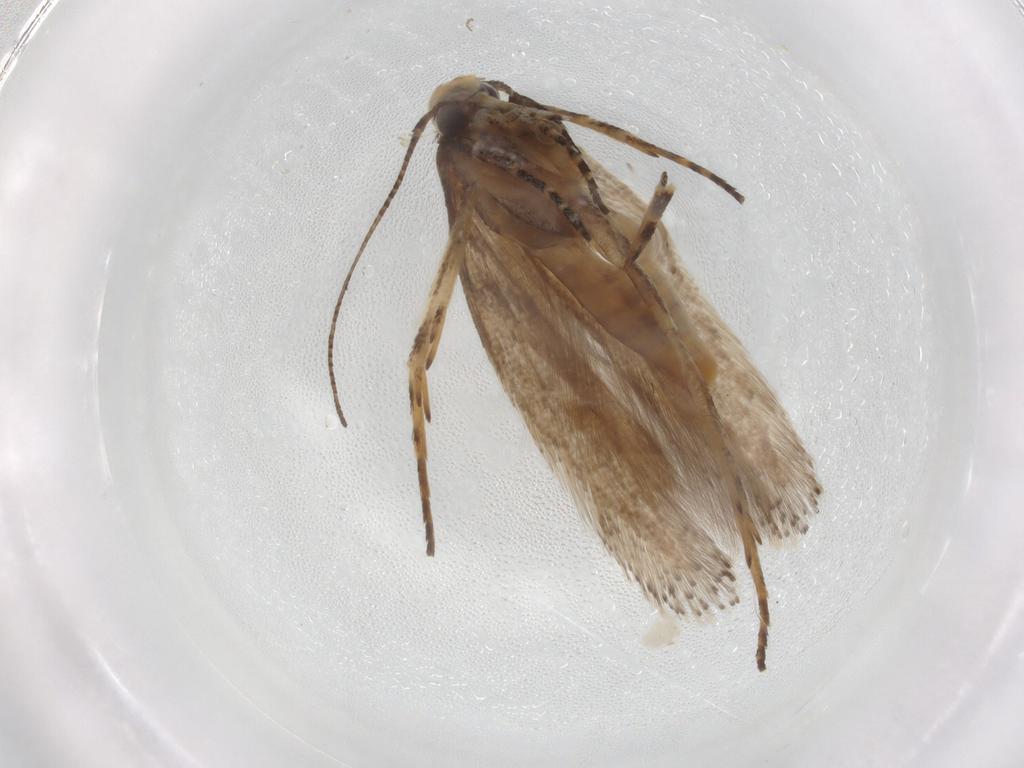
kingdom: Animalia
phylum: Arthropoda
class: Insecta
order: Lepidoptera
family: Gelechiidae
